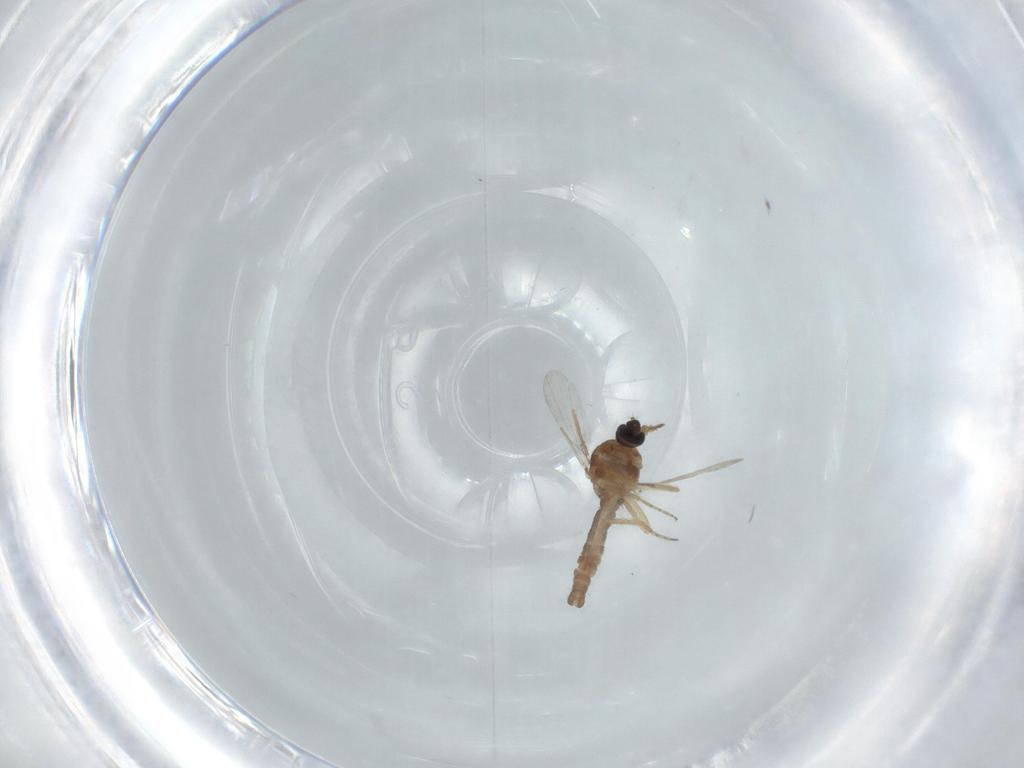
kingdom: Animalia
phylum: Arthropoda
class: Insecta
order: Diptera
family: Ceratopogonidae
